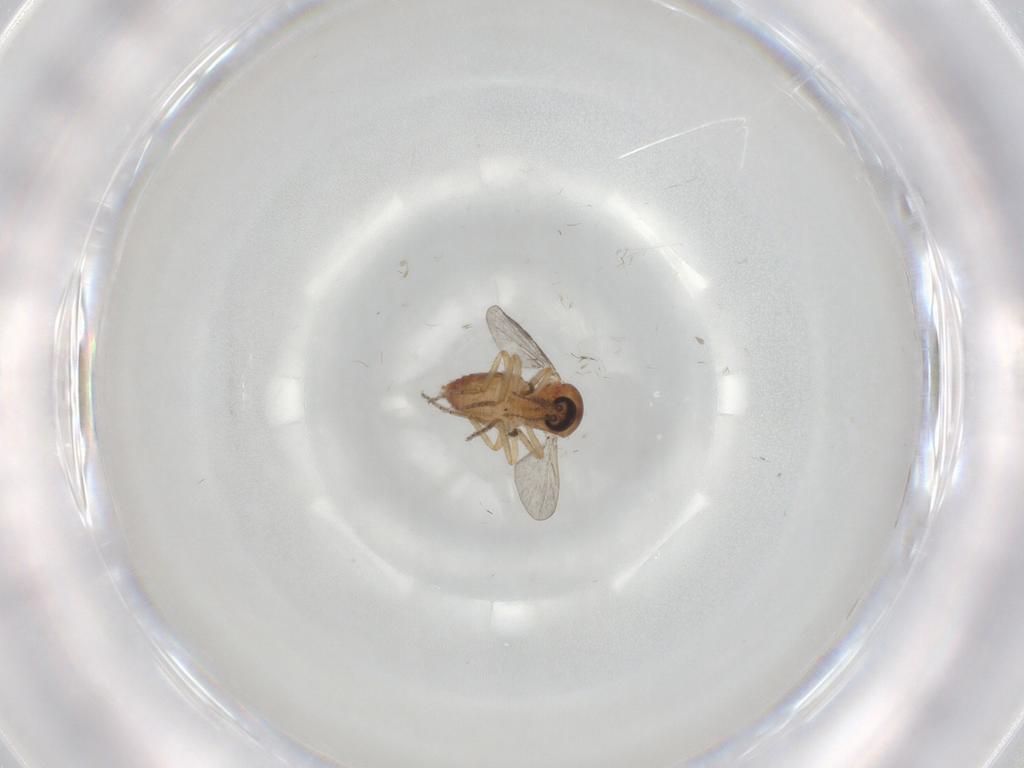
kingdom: Animalia
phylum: Arthropoda
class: Insecta
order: Diptera
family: Ceratopogonidae
